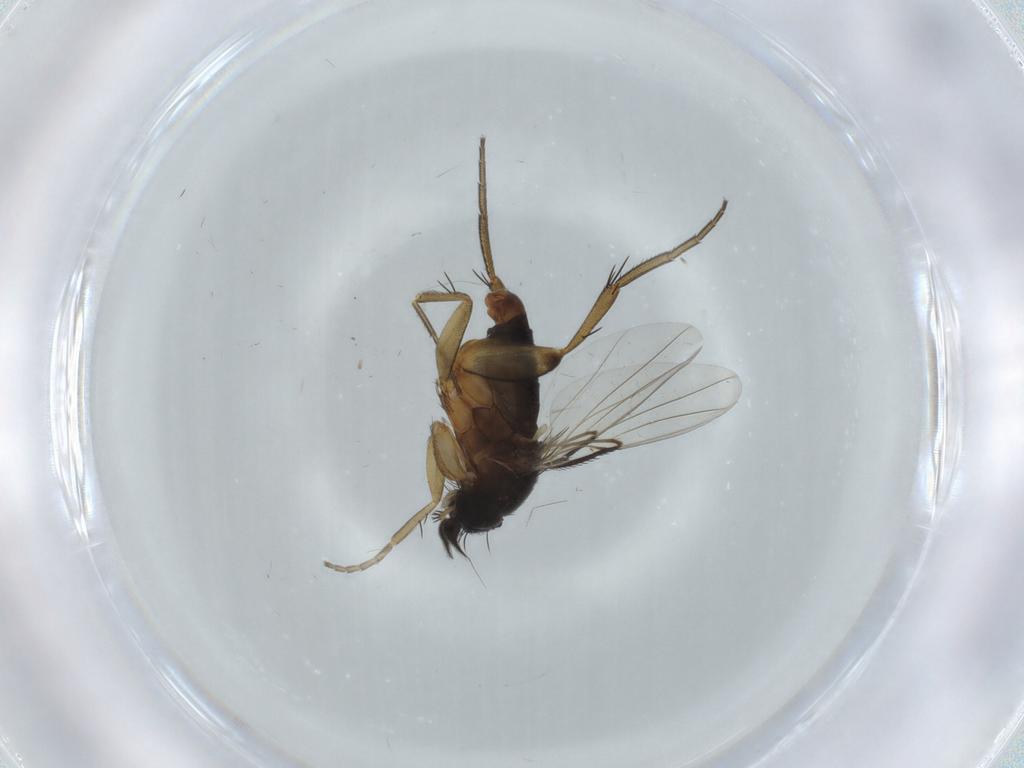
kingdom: Animalia
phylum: Arthropoda
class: Insecta
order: Diptera
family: Phoridae
